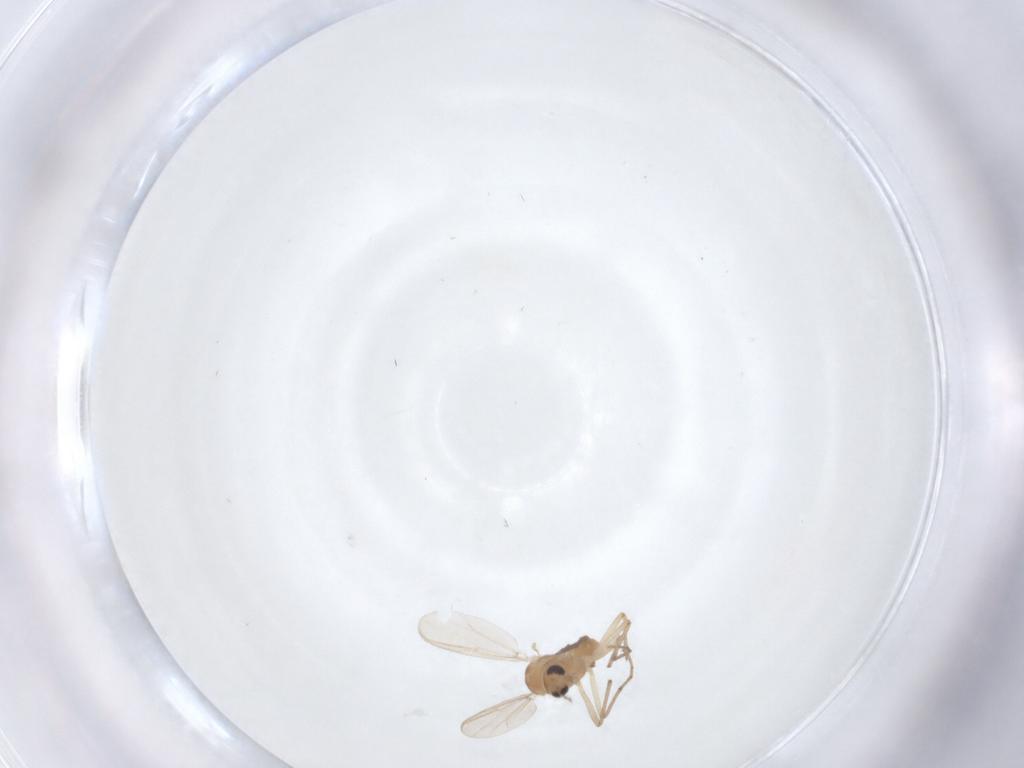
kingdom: Animalia
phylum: Arthropoda
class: Insecta
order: Diptera
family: Chironomidae
